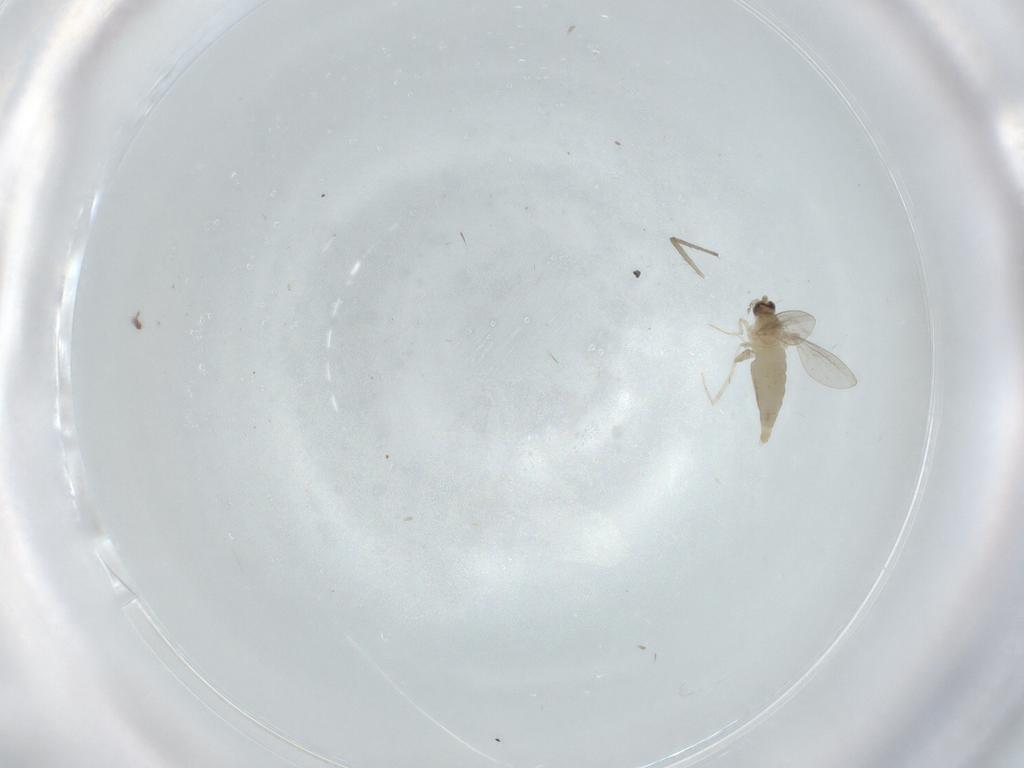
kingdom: Animalia
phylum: Arthropoda
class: Insecta
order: Diptera
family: Cecidomyiidae
